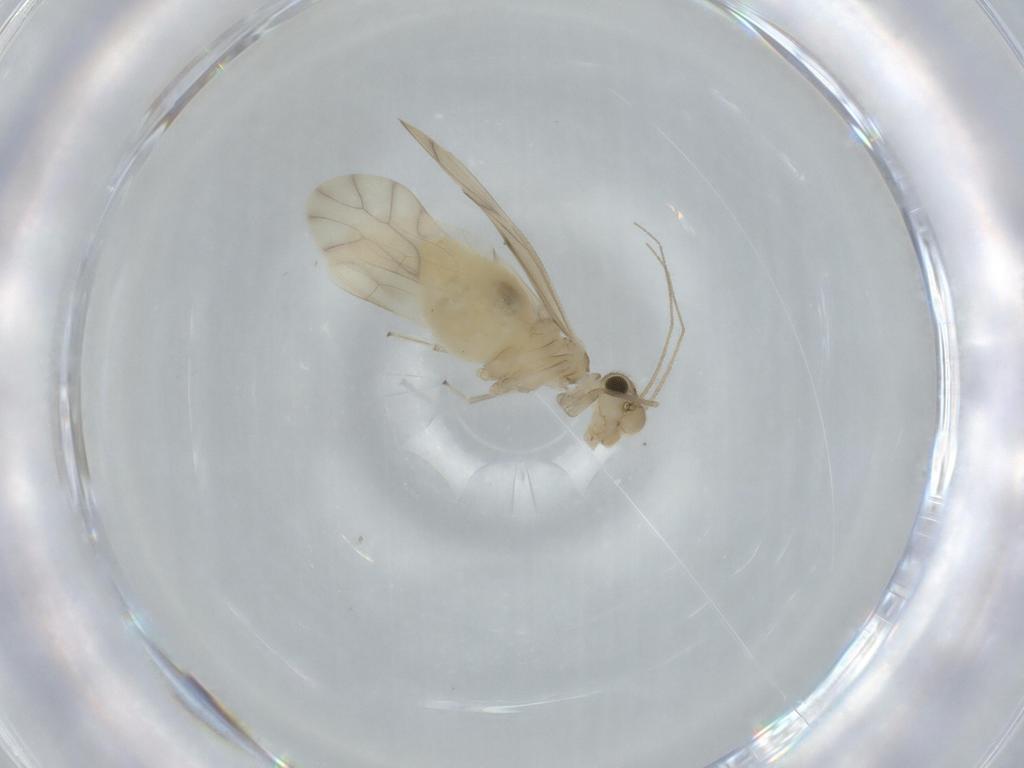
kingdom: Animalia
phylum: Arthropoda
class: Insecta
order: Psocodea
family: Caeciliusidae
